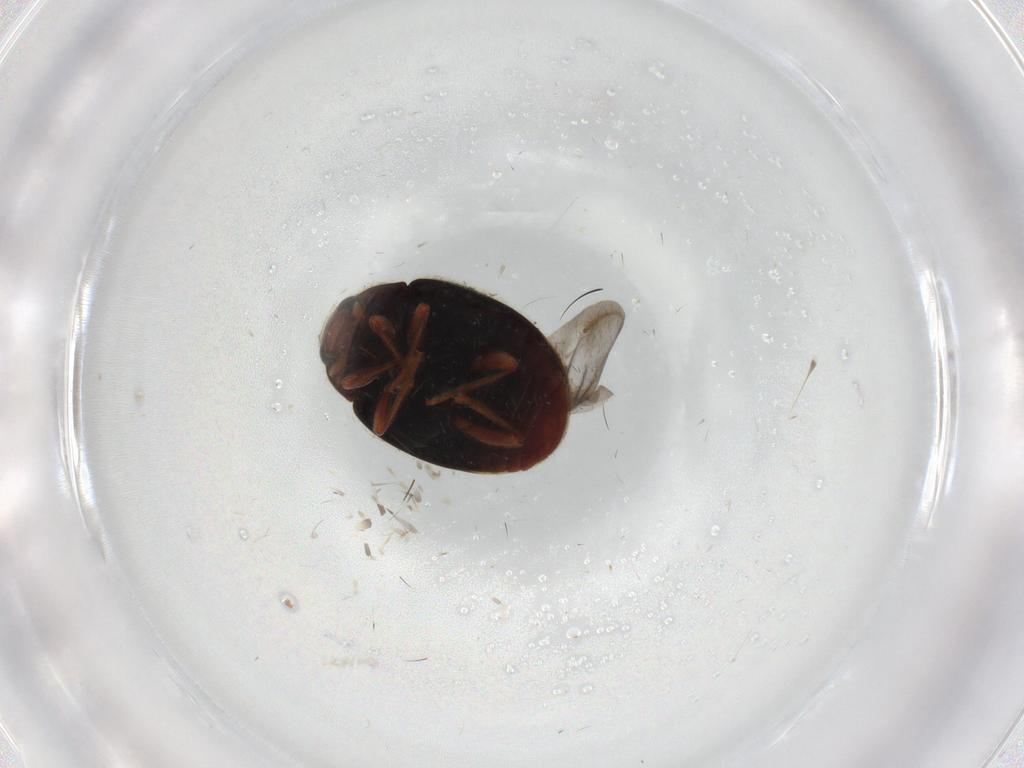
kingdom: Animalia
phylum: Arthropoda
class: Insecta
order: Coleoptera
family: Coccinellidae
